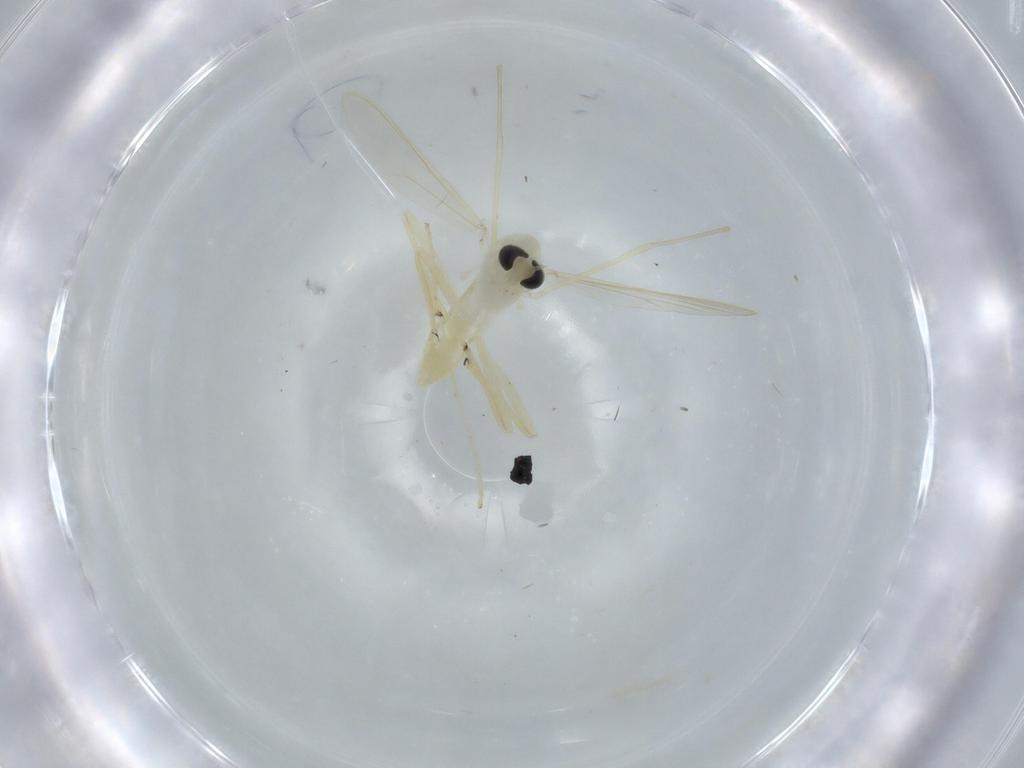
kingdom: Animalia
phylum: Arthropoda
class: Insecta
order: Diptera
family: Chironomidae
